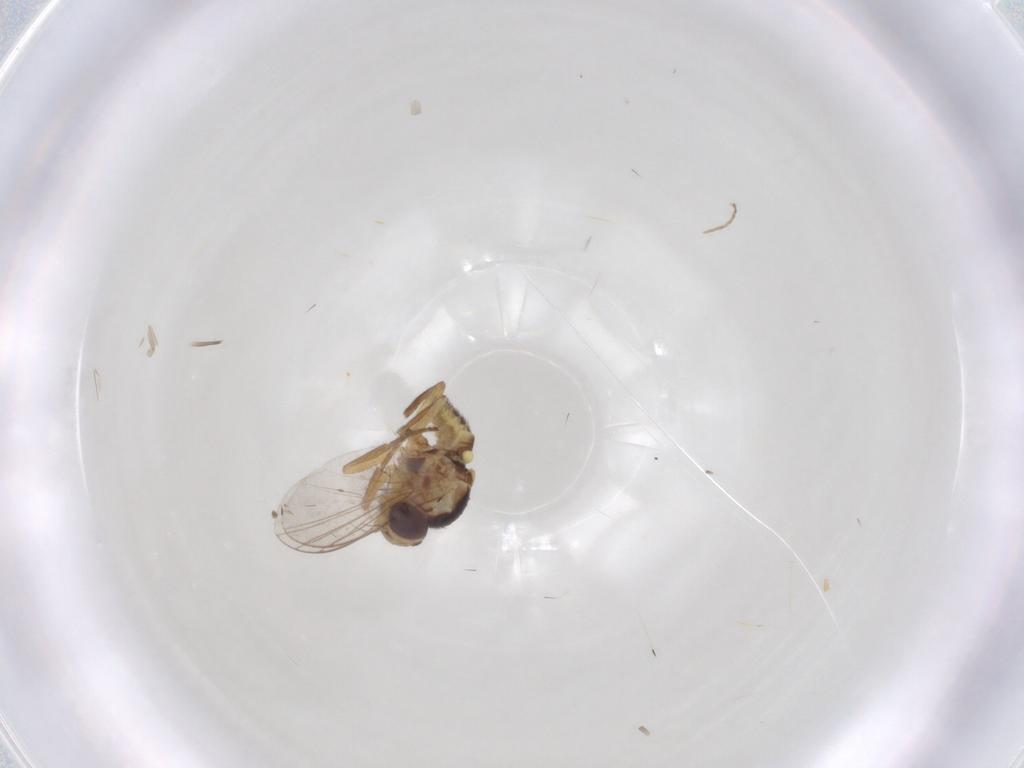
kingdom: Animalia
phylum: Arthropoda
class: Insecta
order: Diptera
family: Agromyzidae
